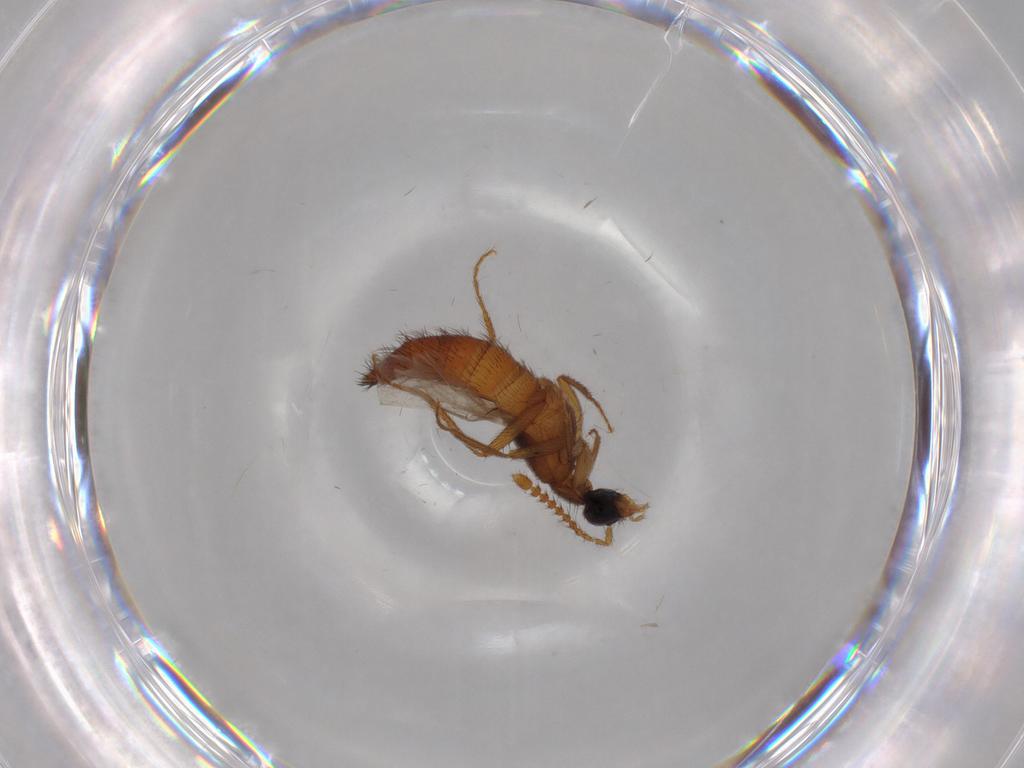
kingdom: Animalia
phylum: Arthropoda
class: Insecta
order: Coleoptera
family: Staphylinidae
